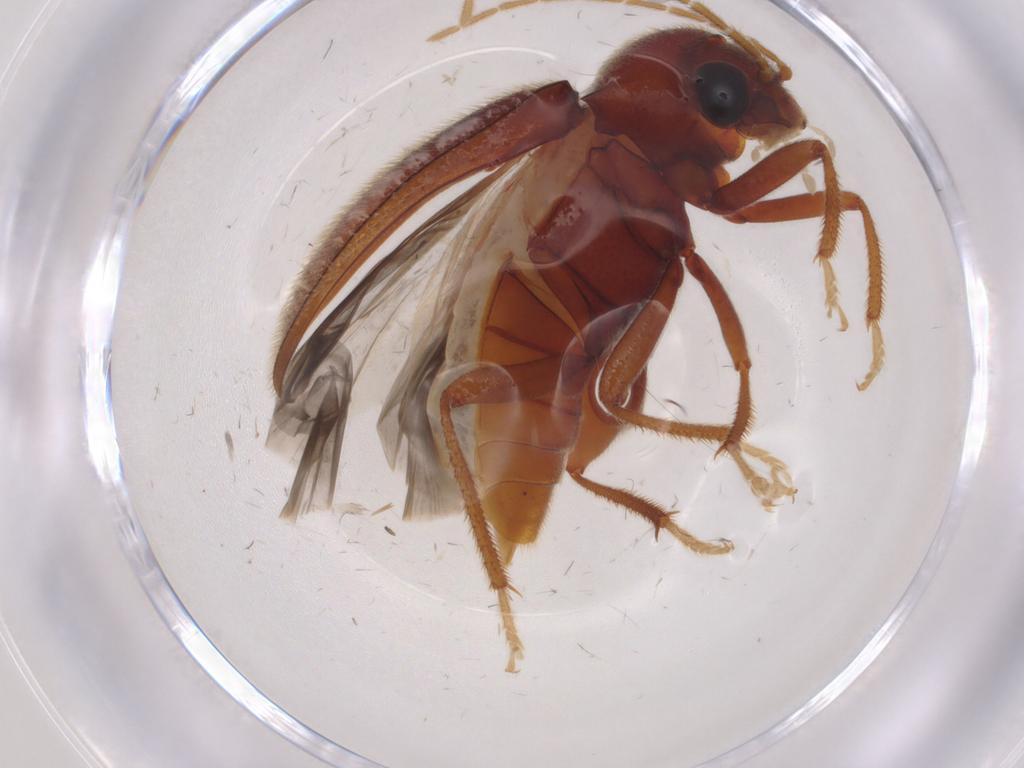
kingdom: Animalia
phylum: Arthropoda
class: Insecta
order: Coleoptera
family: Ptilodactylidae
